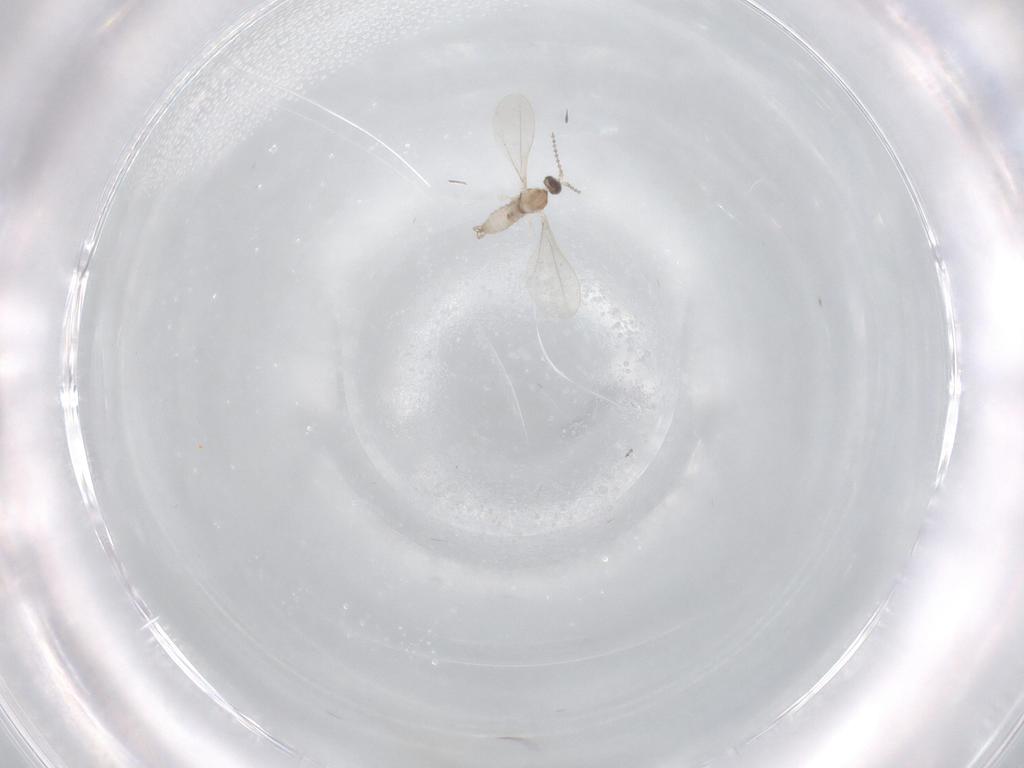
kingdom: Animalia
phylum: Arthropoda
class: Insecta
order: Diptera
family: Cecidomyiidae
